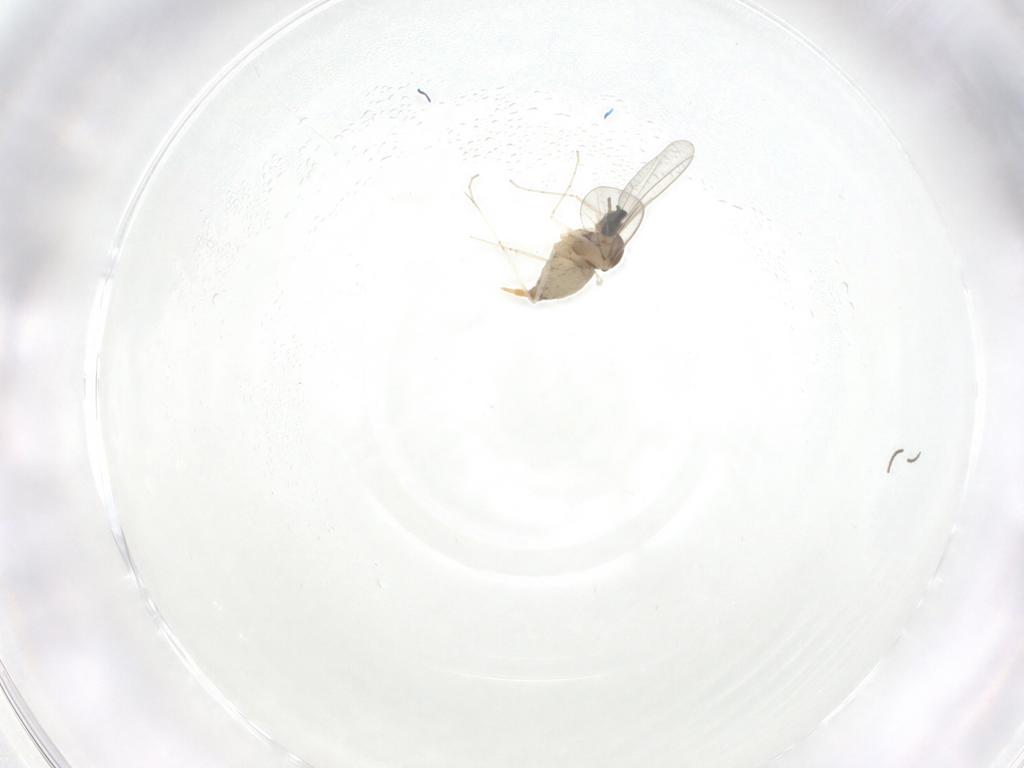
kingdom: Animalia
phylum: Arthropoda
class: Insecta
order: Diptera
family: Cecidomyiidae
